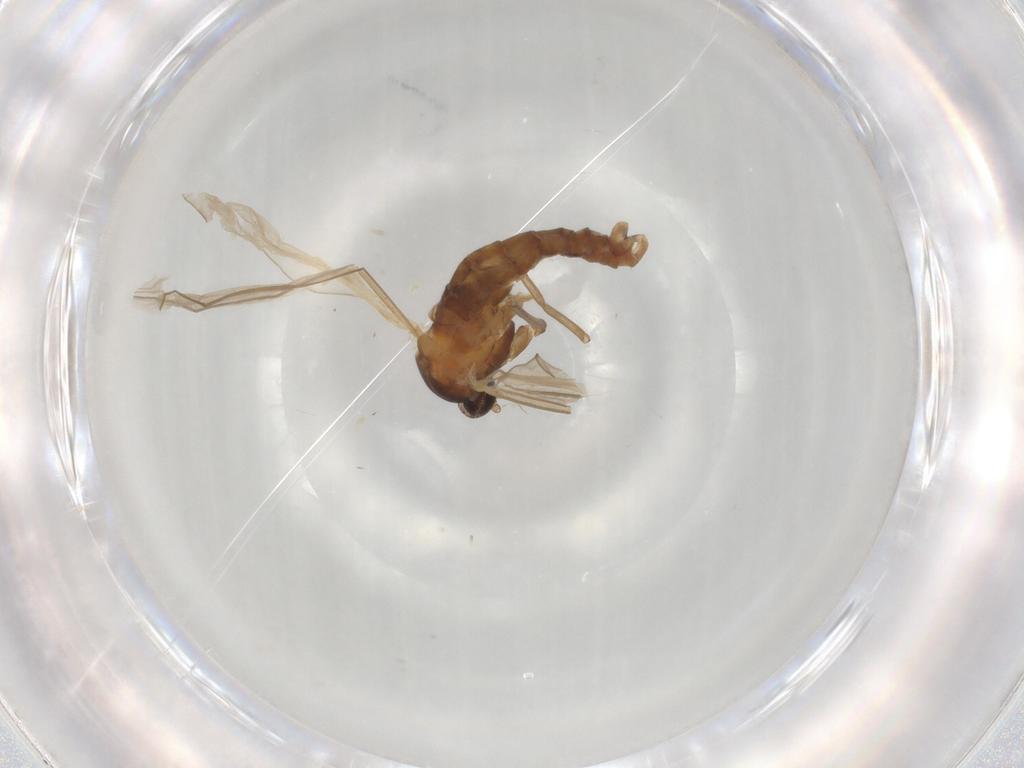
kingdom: Animalia
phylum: Arthropoda
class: Insecta
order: Diptera
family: Cecidomyiidae
